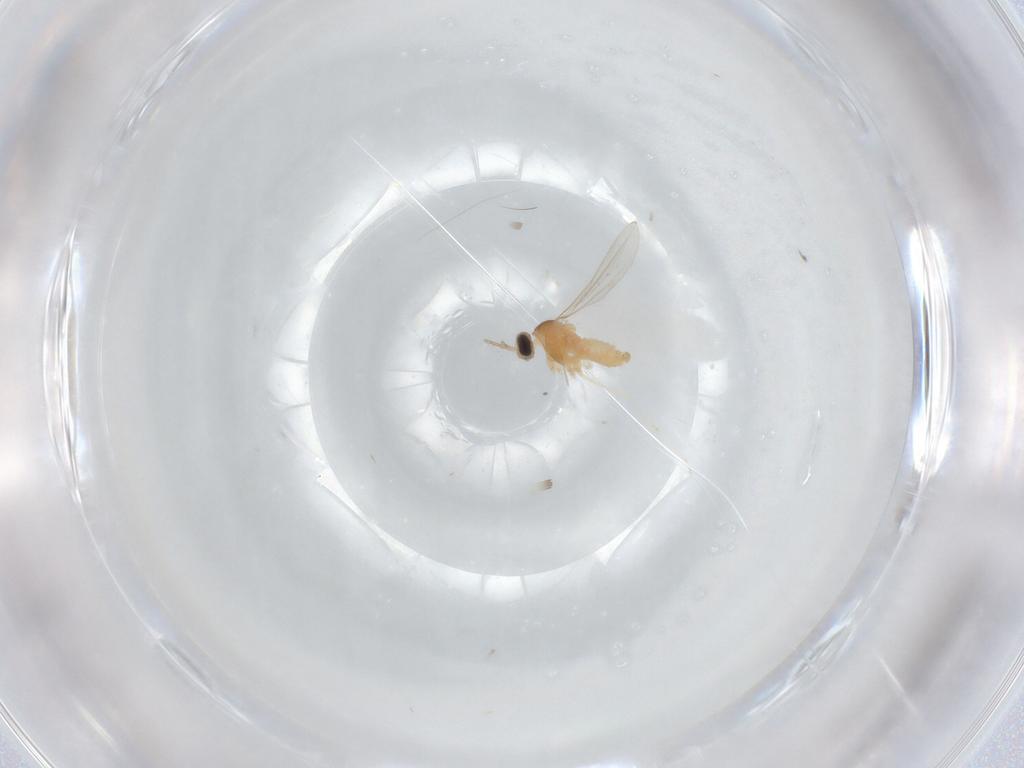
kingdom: Animalia
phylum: Arthropoda
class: Insecta
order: Diptera
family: Cecidomyiidae
